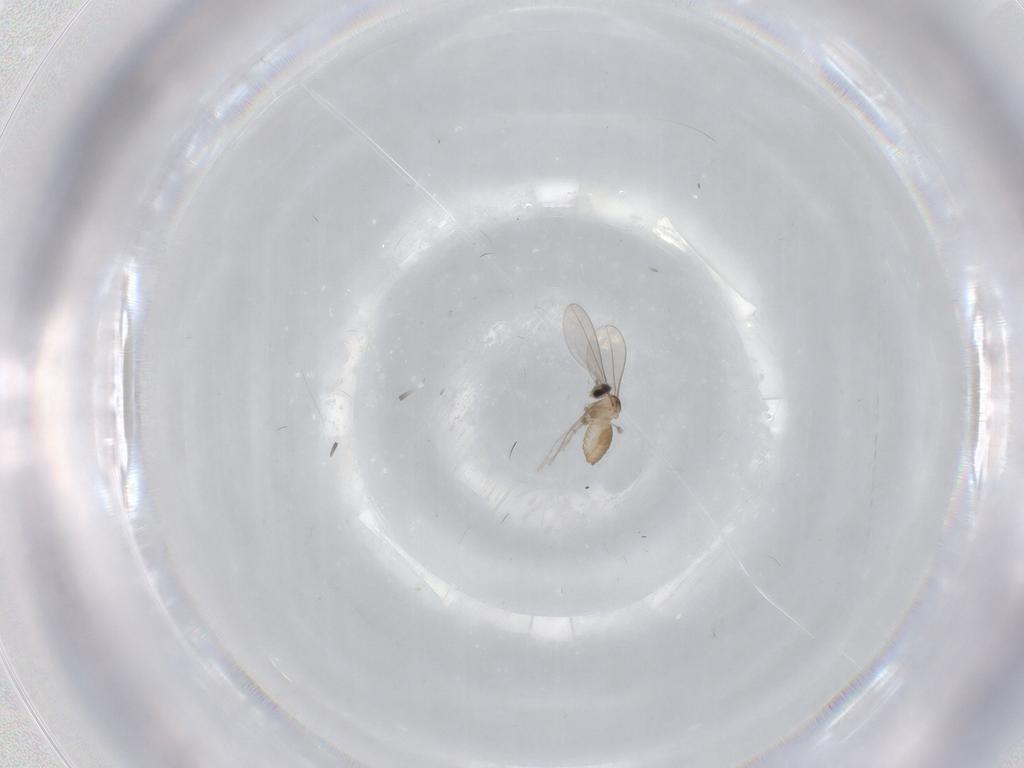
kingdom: Animalia
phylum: Arthropoda
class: Insecta
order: Diptera
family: Cecidomyiidae
